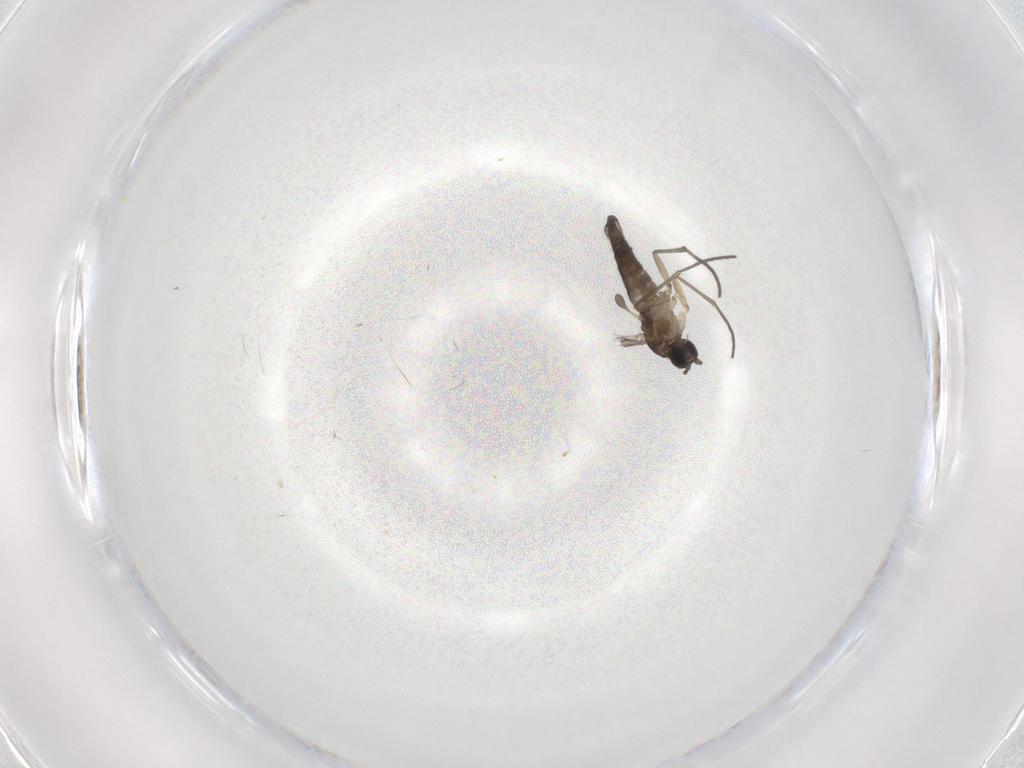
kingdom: Animalia
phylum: Arthropoda
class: Insecta
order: Diptera
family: Sciaridae
